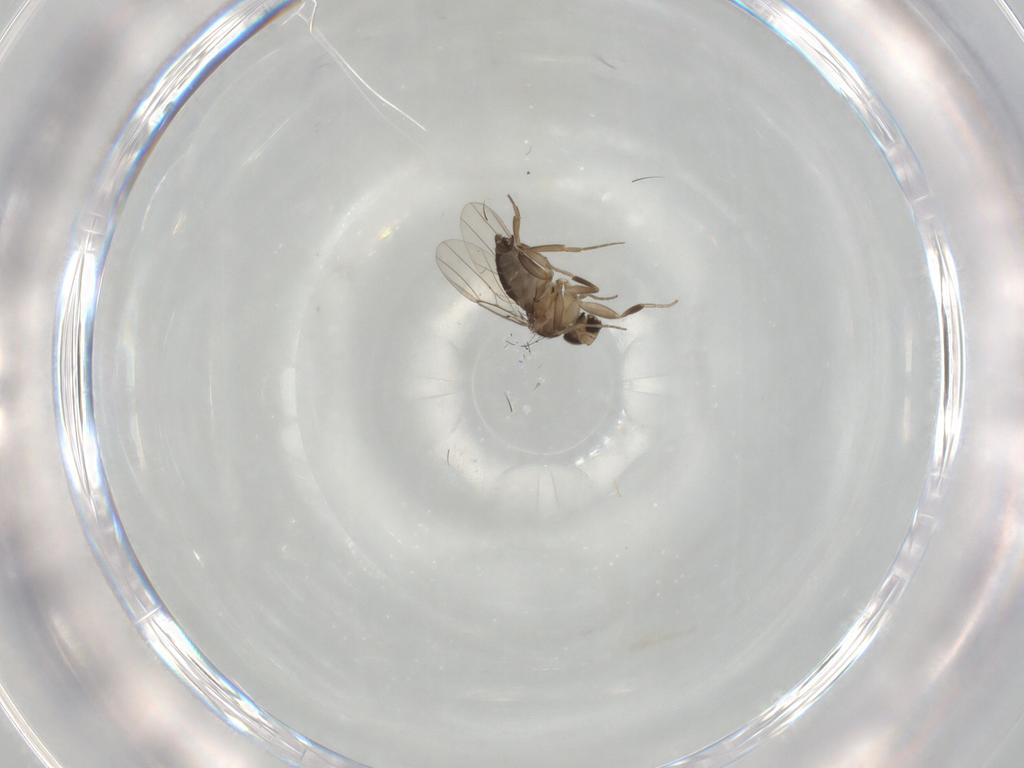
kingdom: Animalia
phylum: Arthropoda
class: Insecta
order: Diptera
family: Phoridae
